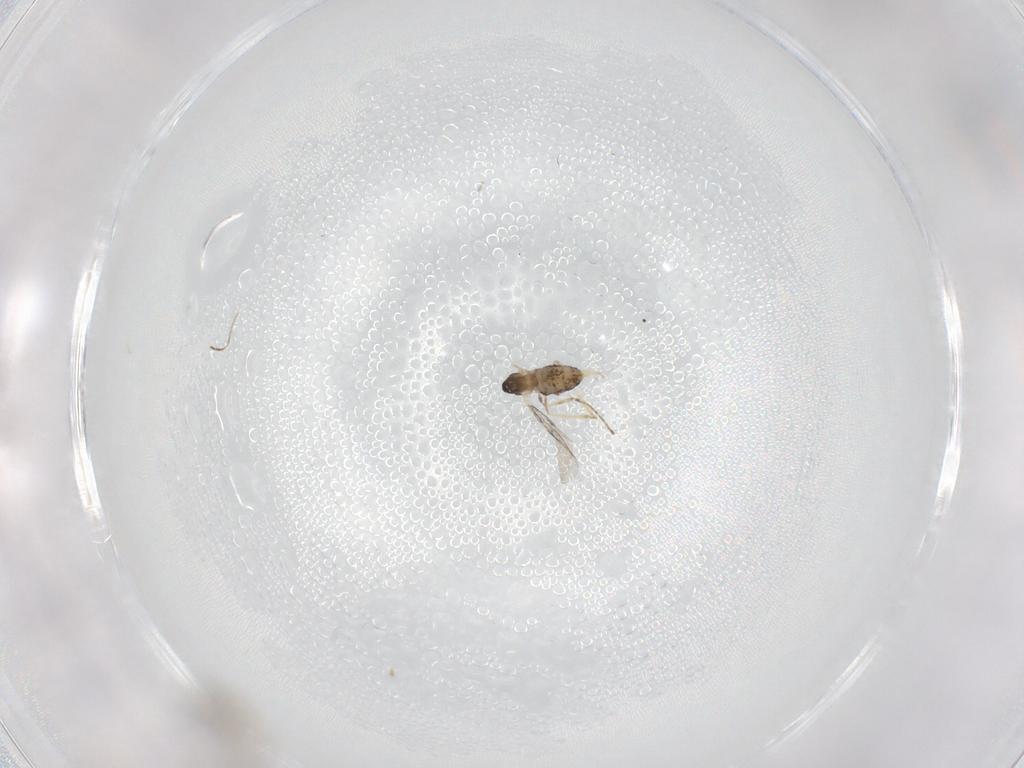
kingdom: Animalia
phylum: Arthropoda
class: Insecta
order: Diptera
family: Cecidomyiidae
